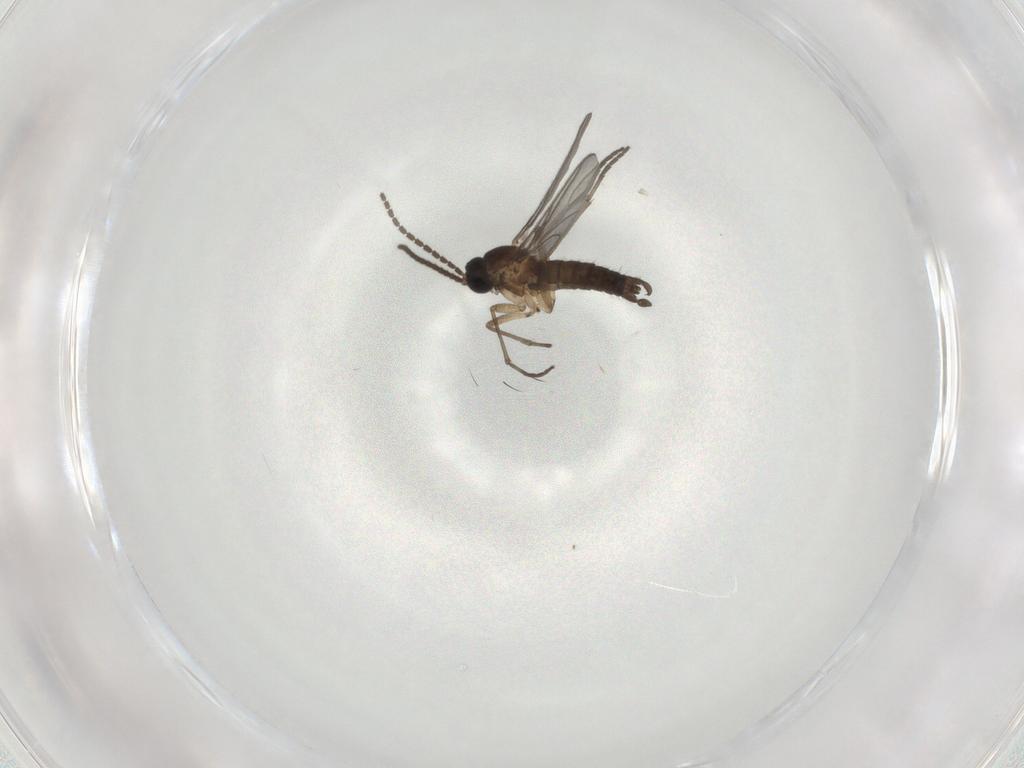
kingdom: Animalia
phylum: Arthropoda
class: Insecta
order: Diptera
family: Sciaridae
